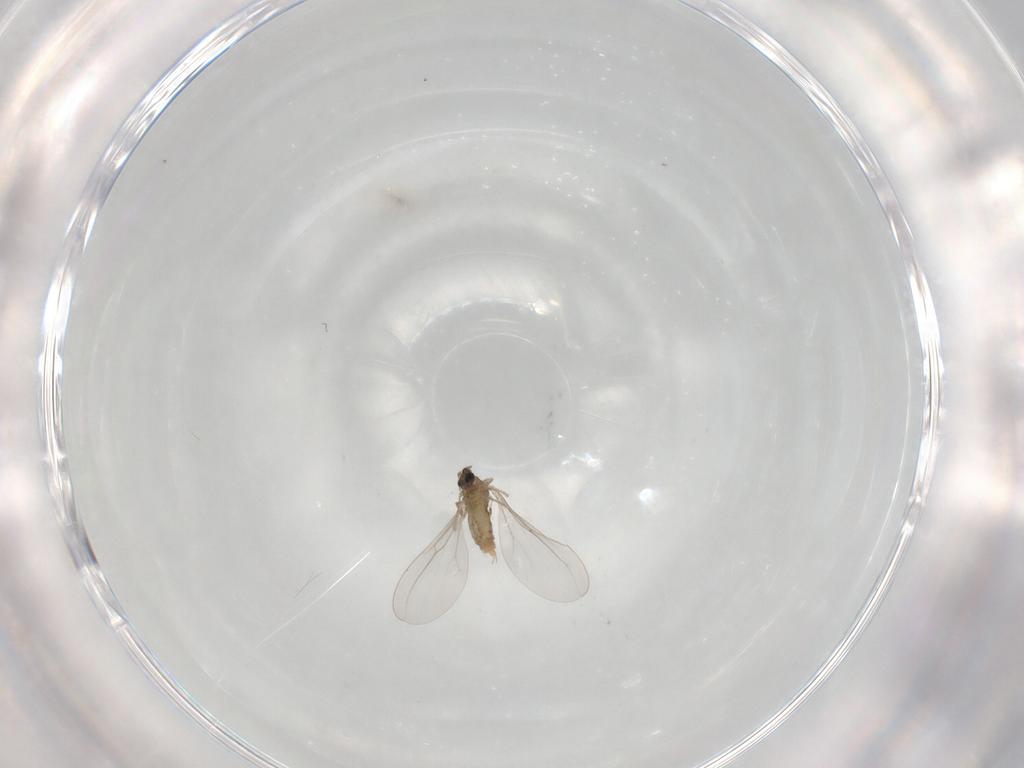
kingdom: Animalia
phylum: Arthropoda
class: Insecta
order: Diptera
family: Cecidomyiidae
